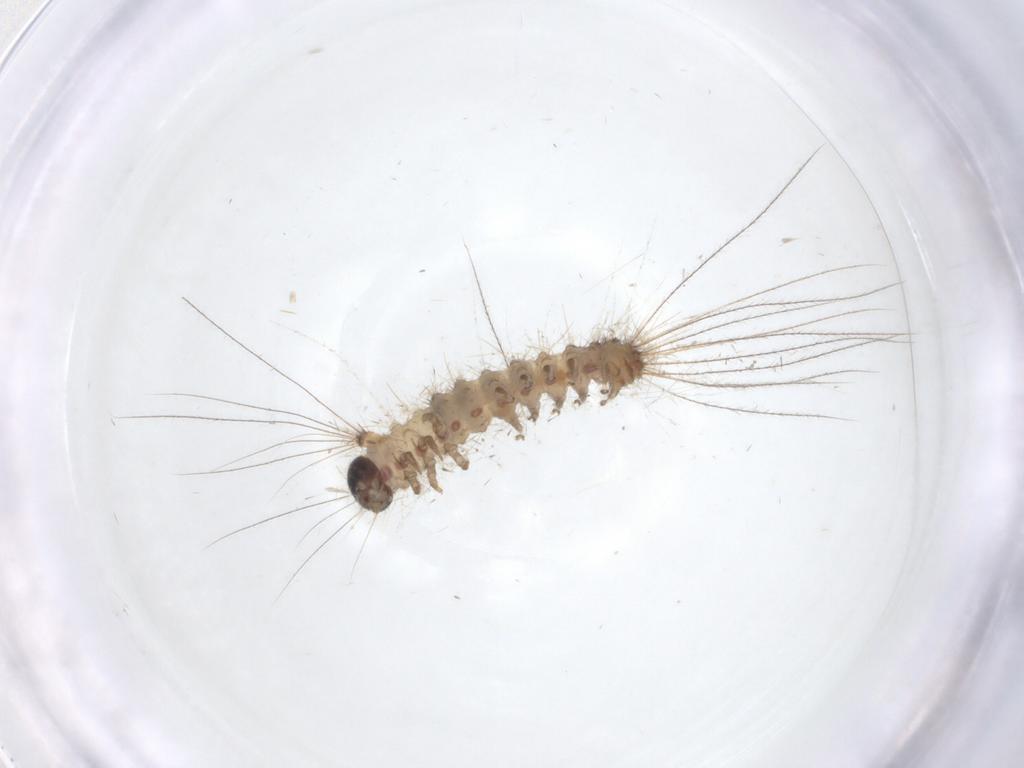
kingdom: Animalia
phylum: Arthropoda
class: Insecta
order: Lepidoptera
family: Erebidae
